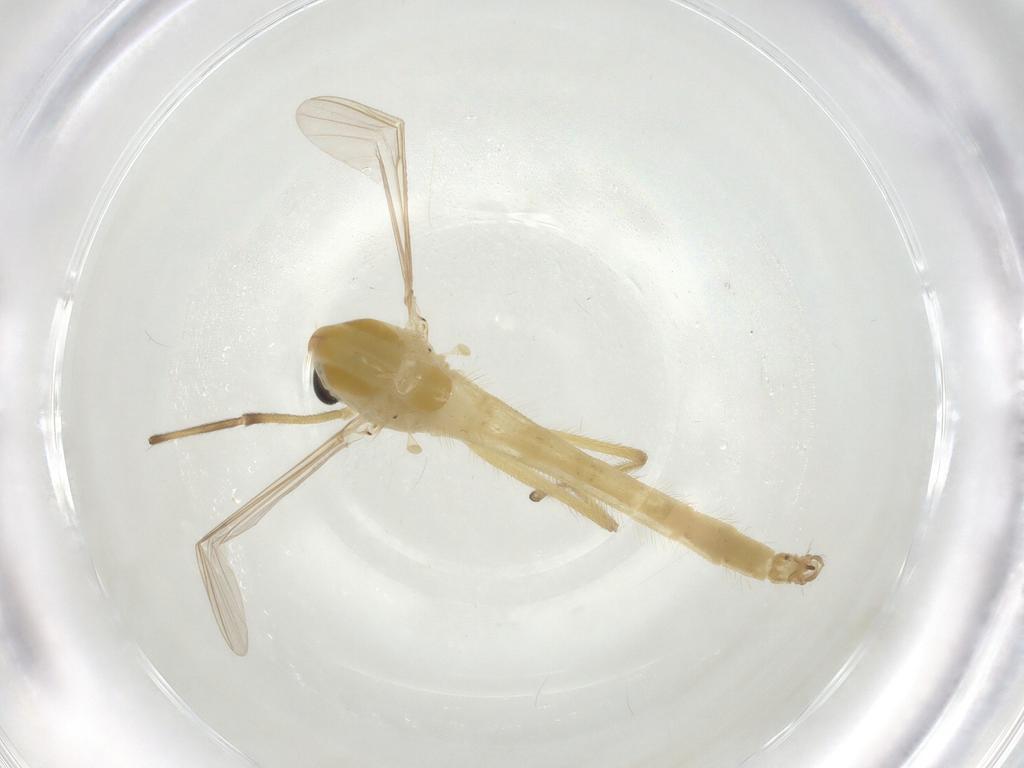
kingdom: Animalia
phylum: Arthropoda
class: Insecta
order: Diptera
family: Chironomidae
